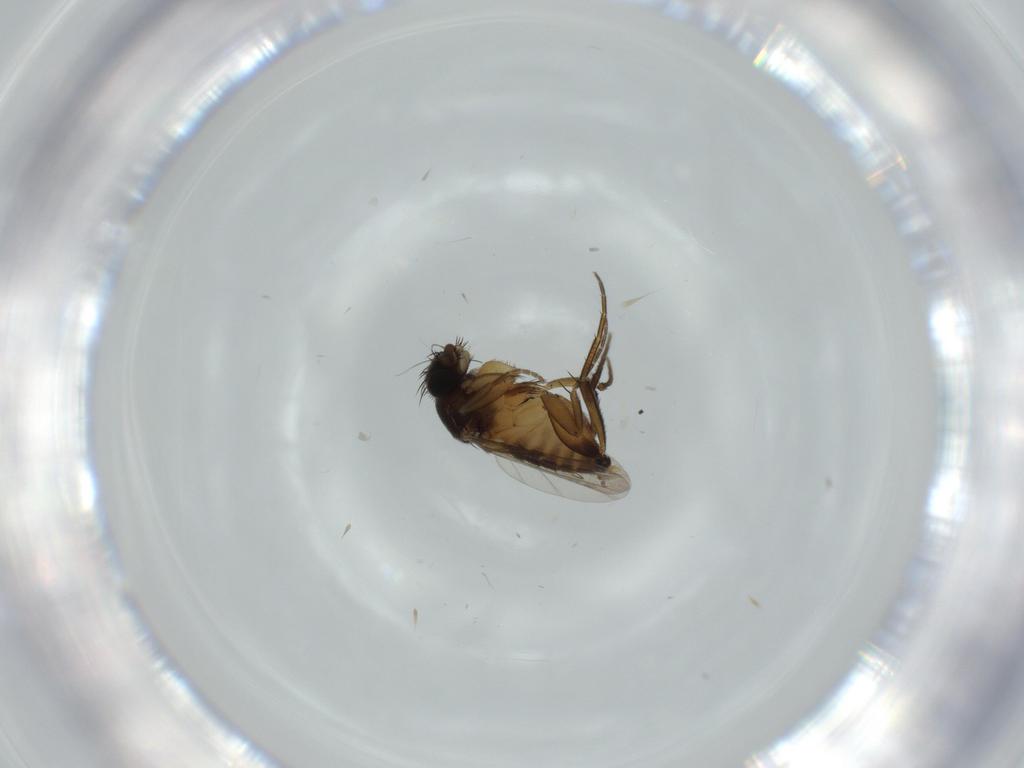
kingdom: Animalia
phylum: Arthropoda
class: Insecta
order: Diptera
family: Phoridae
